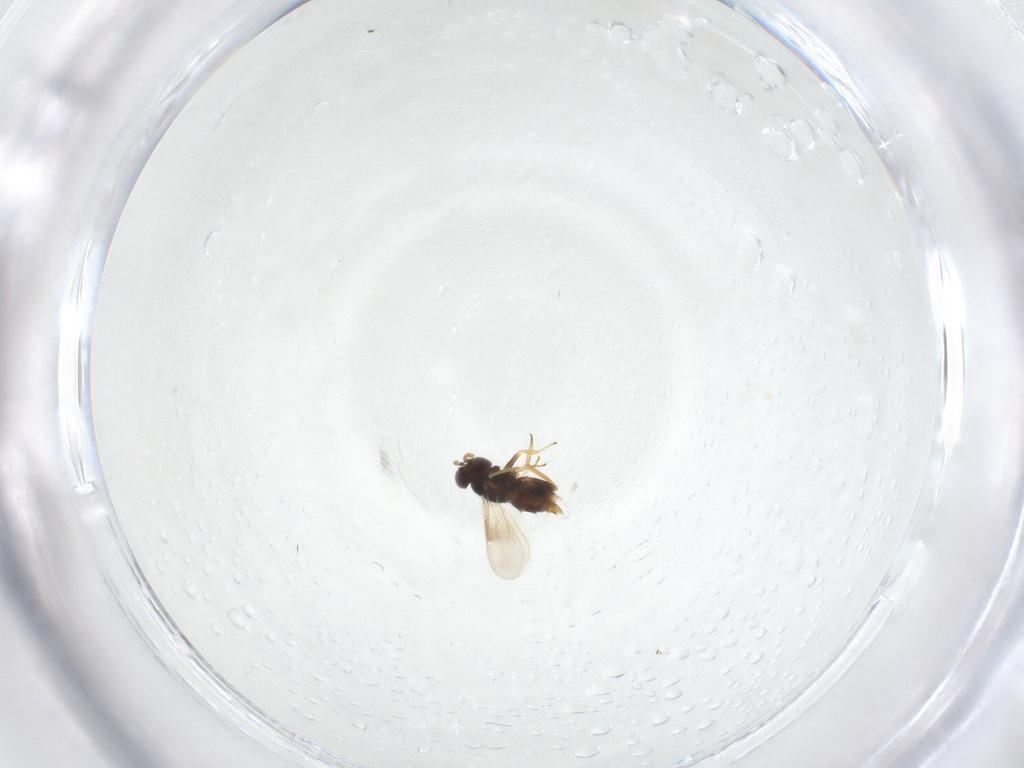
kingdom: Animalia
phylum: Arthropoda
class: Insecta
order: Hymenoptera
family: Aphelinidae
